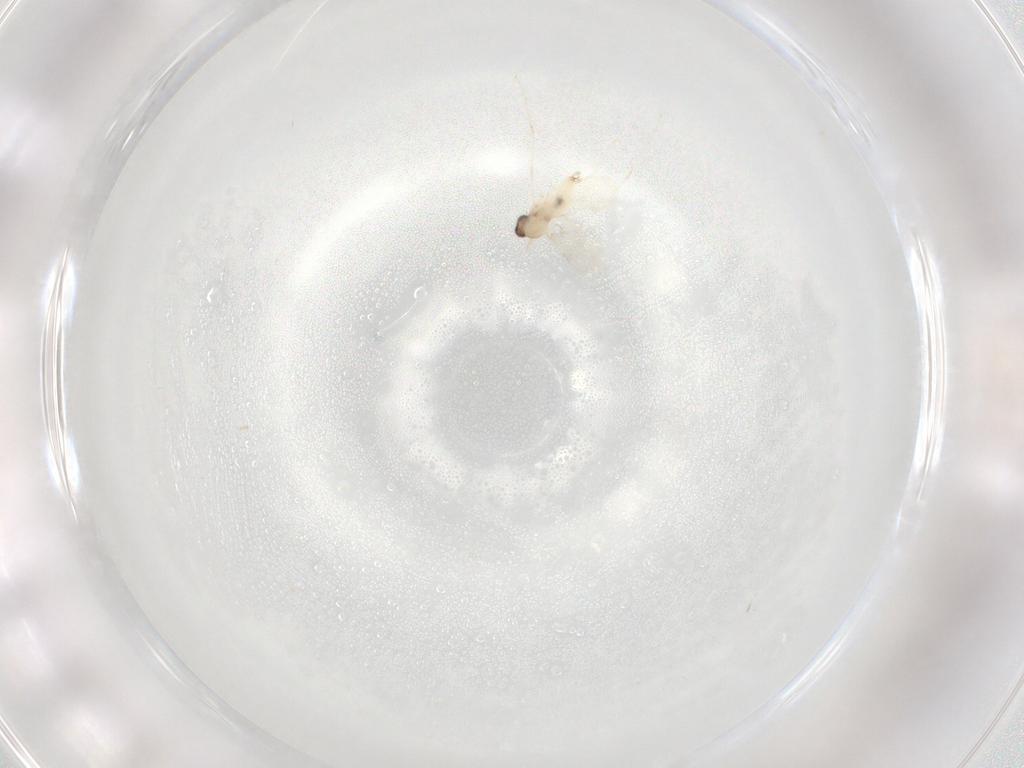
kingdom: Animalia
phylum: Arthropoda
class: Insecta
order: Diptera
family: Cecidomyiidae
